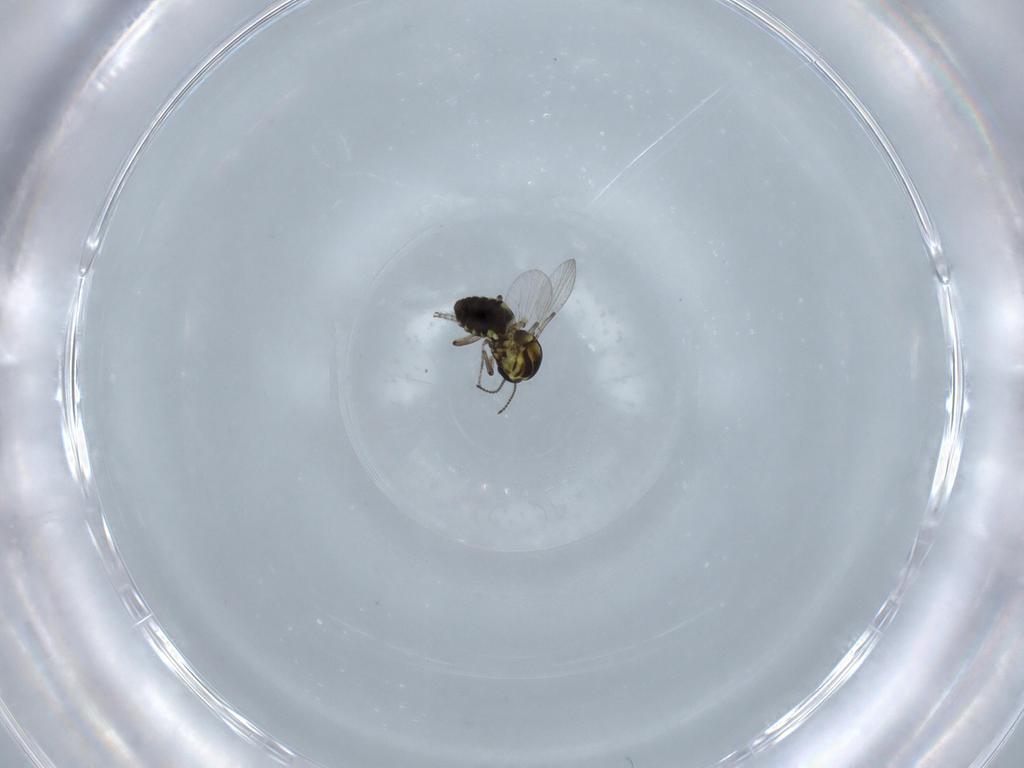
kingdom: Animalia
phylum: Arthropoda
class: Insecta
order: Diptera
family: Ceratopogonidae
